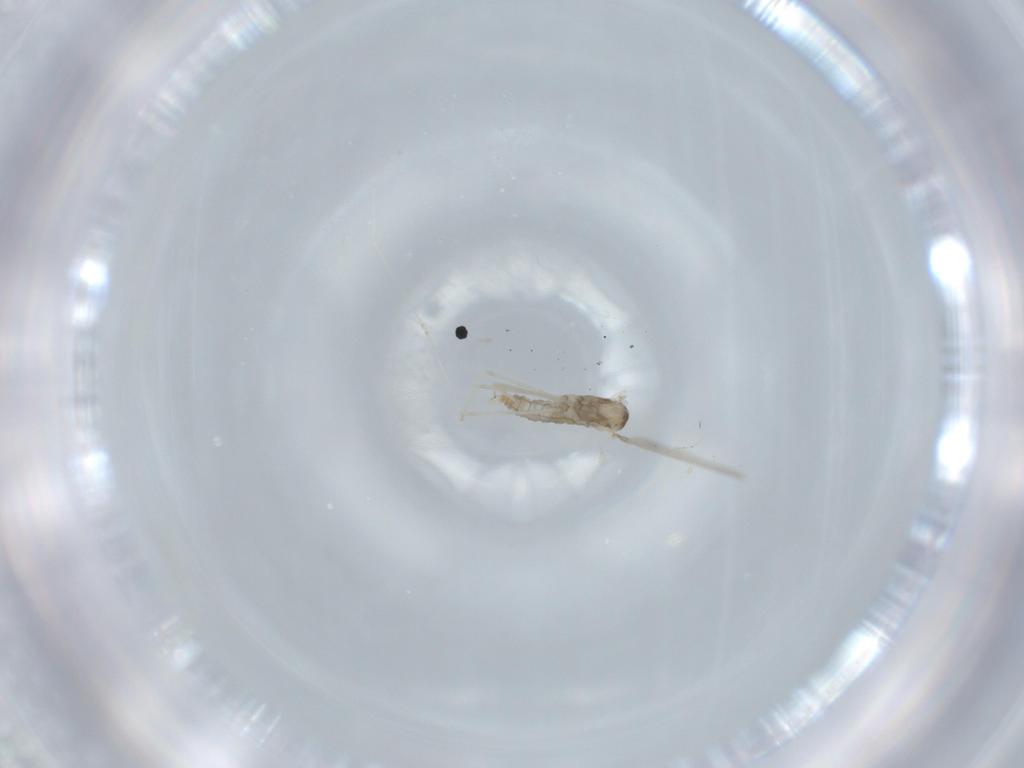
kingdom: Animalia
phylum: Arthropoda
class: Insecta
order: Diptera
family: Cecidomyiidae
